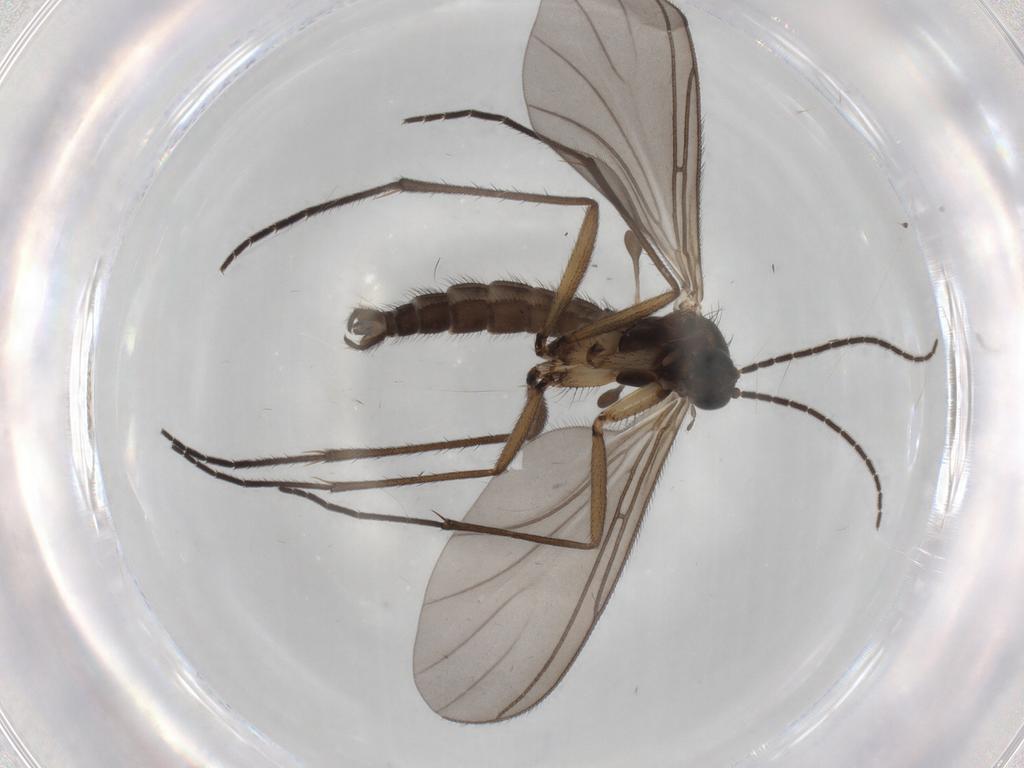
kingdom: Animalia
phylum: Arthropoda
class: Insecta
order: Diptera
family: Sciaridae
